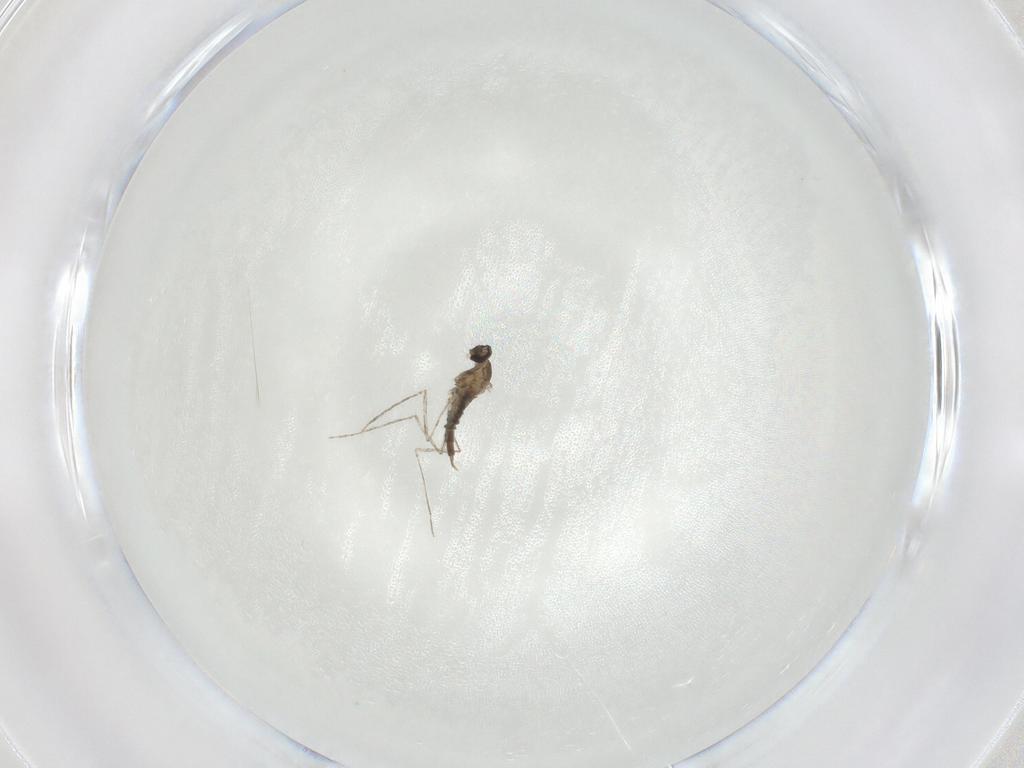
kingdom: Animalia
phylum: Arthropoda
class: Insecta
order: Diptera
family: Cecidomyiidae
